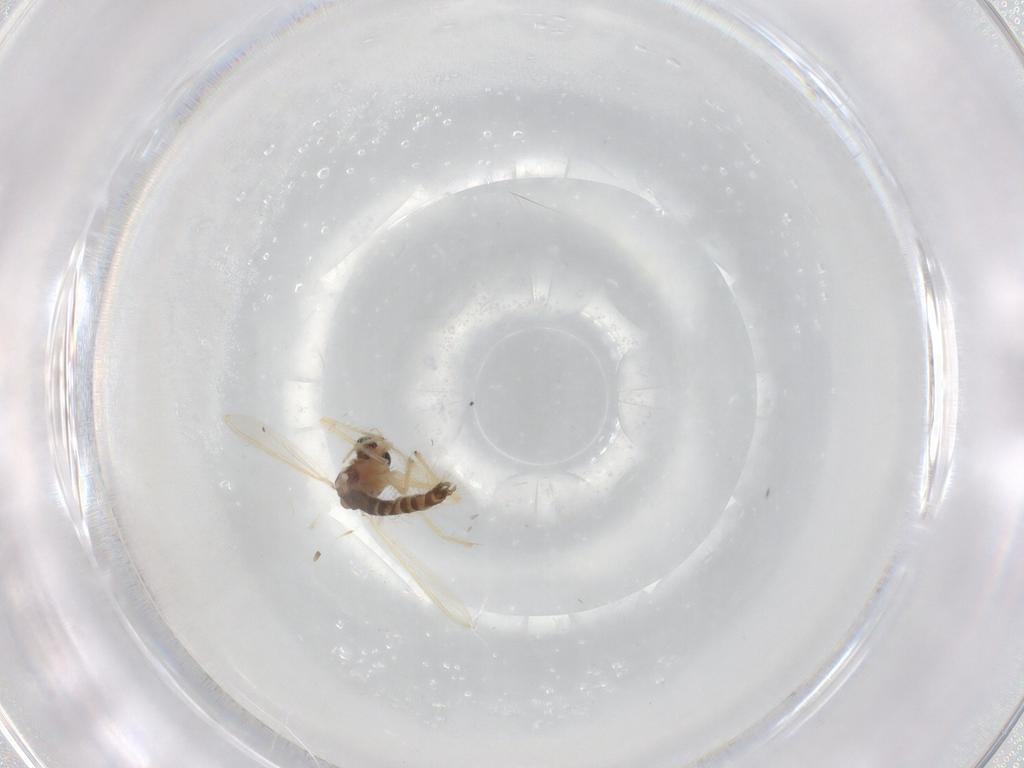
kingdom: Animalia
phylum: Arthropoda
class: Insecta
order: Diptera
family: Chironomidae
